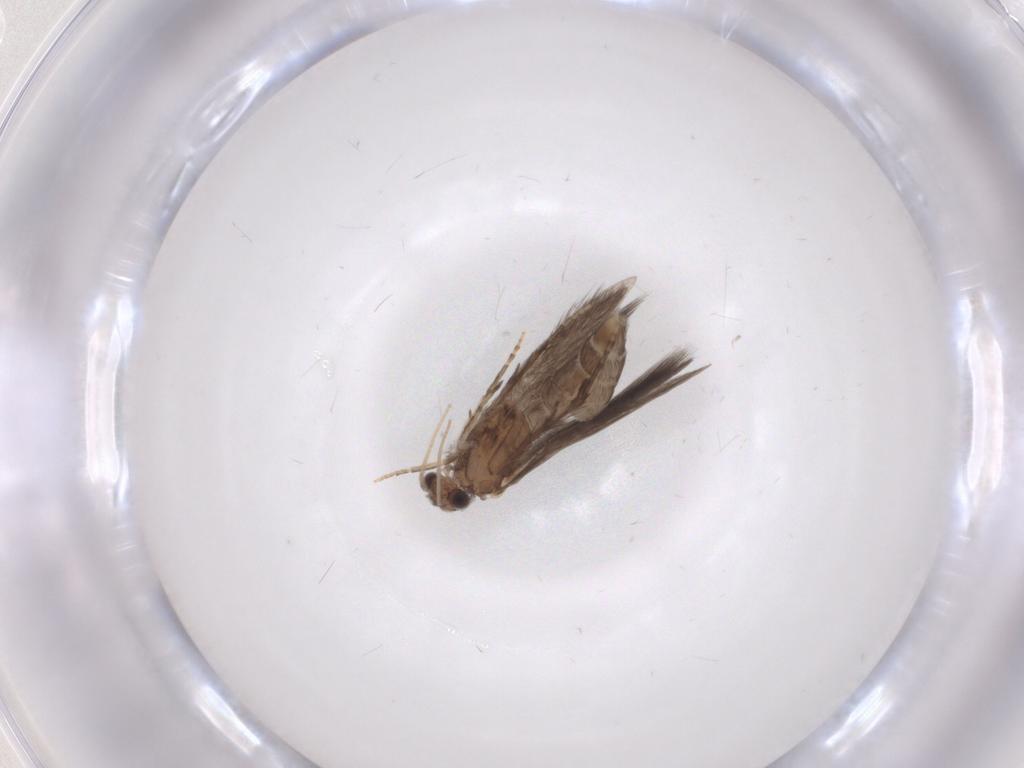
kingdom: Animalia
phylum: Arthropoda
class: Insecta
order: Trichoptera
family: Hydroptilidae
